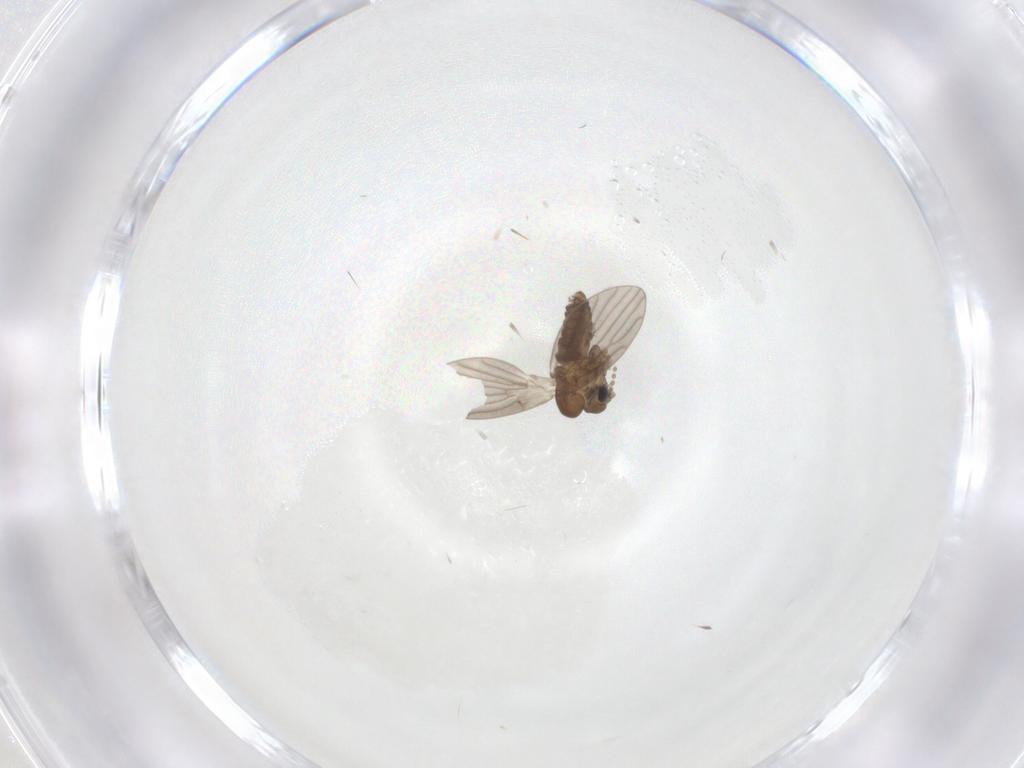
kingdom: Animalia
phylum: Arthropoda
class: Insecta
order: Diptera
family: Psychodidae
